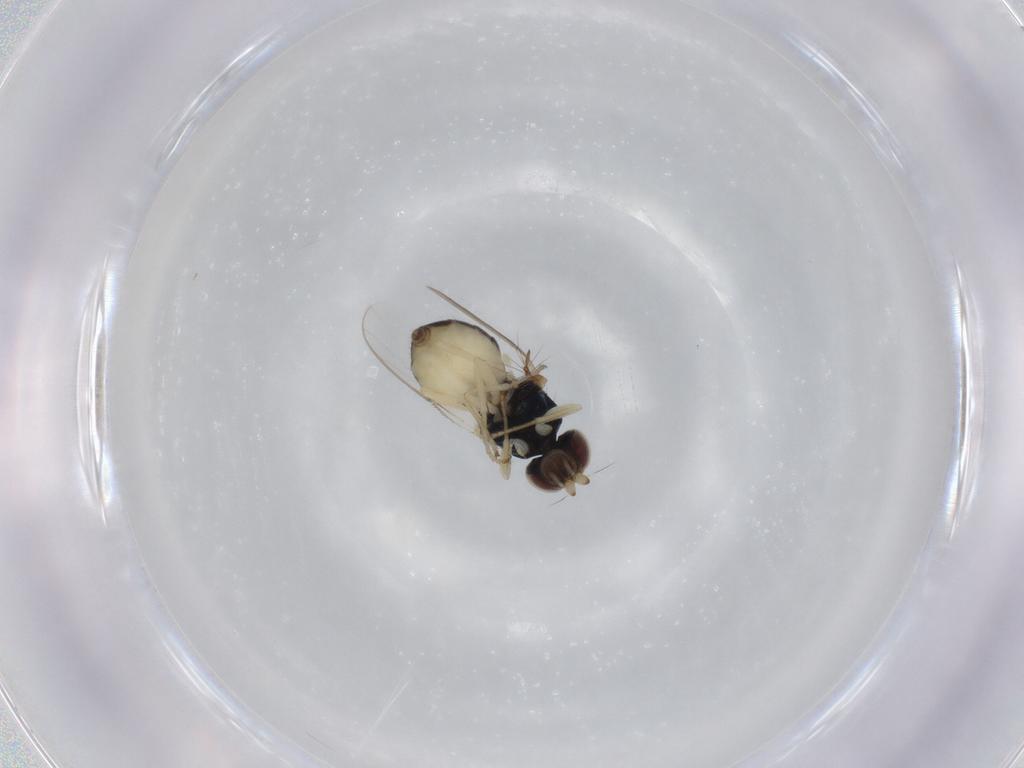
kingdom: Animalia
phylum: Arthropoda
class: Insecta
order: Diptera
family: Chloropidae
